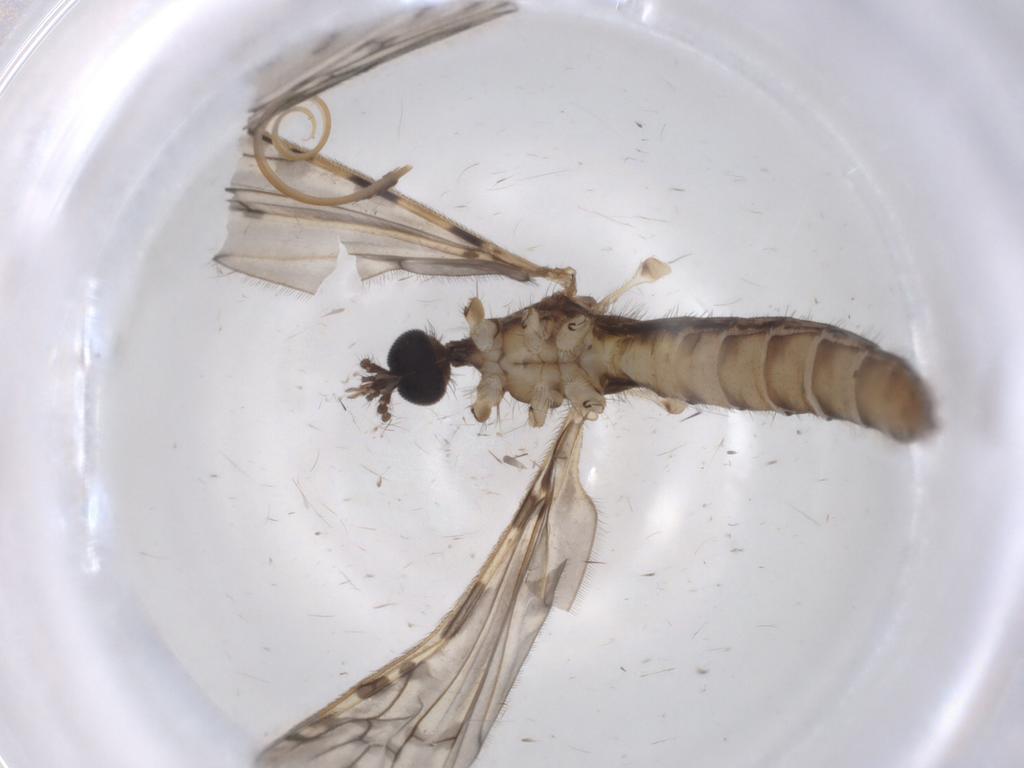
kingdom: Animalia
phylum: Arthropoda
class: Insecta
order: Diptera
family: Limoniidae
